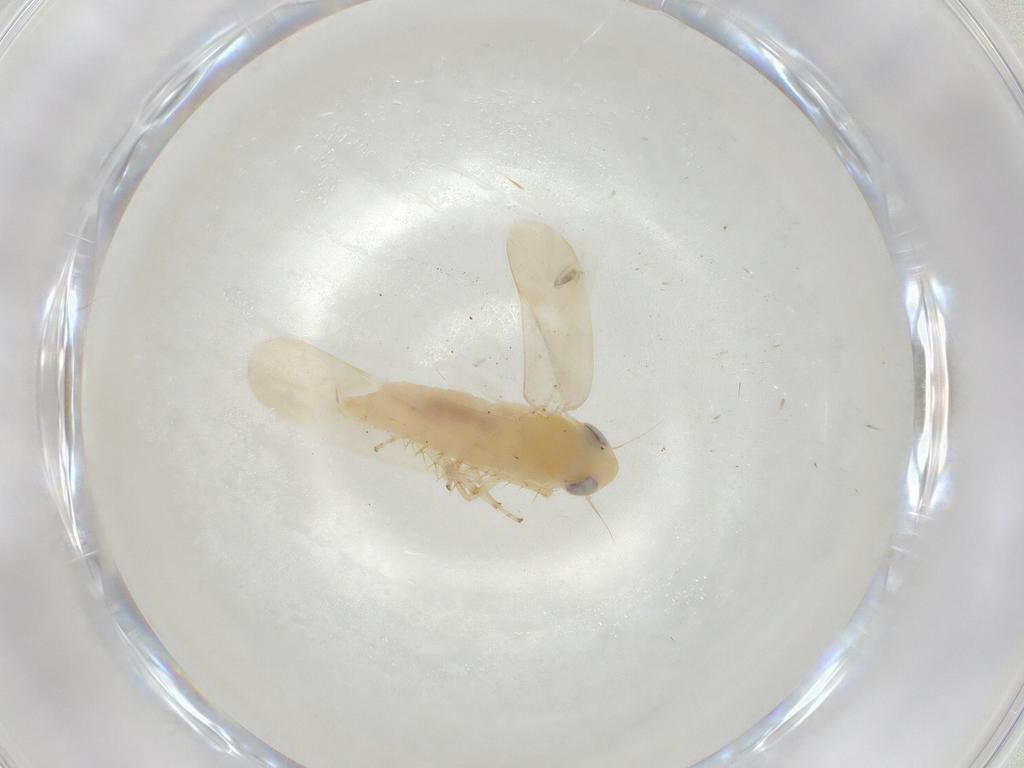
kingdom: Animalia
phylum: Arthropoda
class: Insecta
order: Hemiptera
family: Cicadellidae
